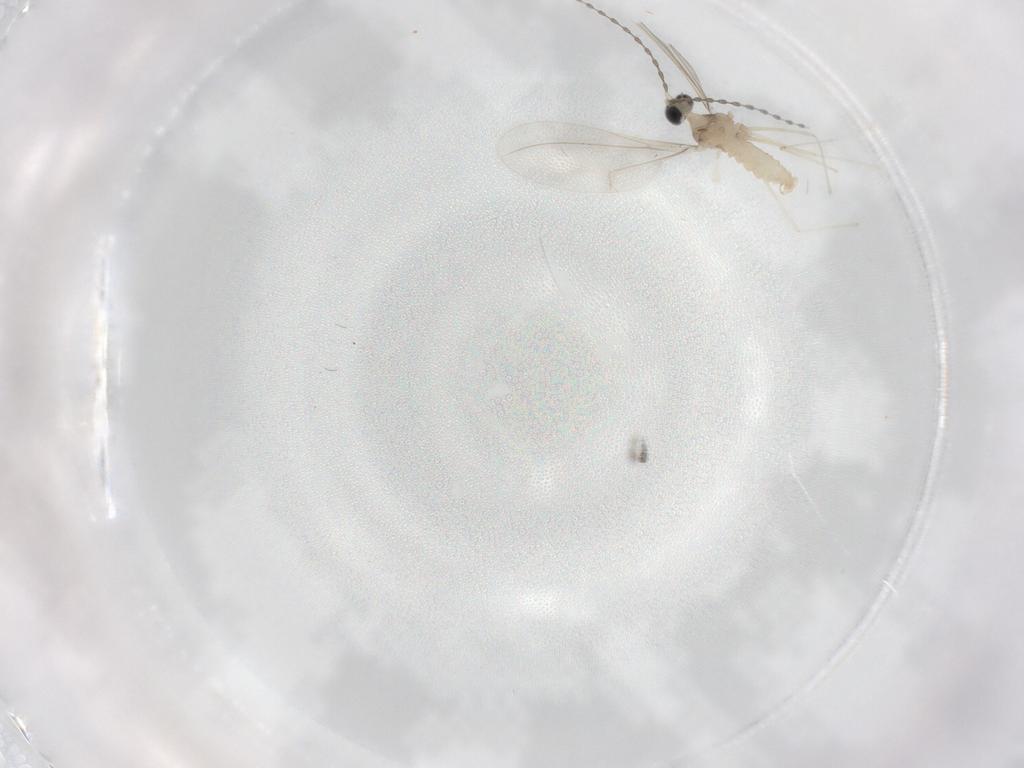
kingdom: Animalia
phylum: Arthropoda
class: Insecta
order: Diptera
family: Cecidomyiidae
